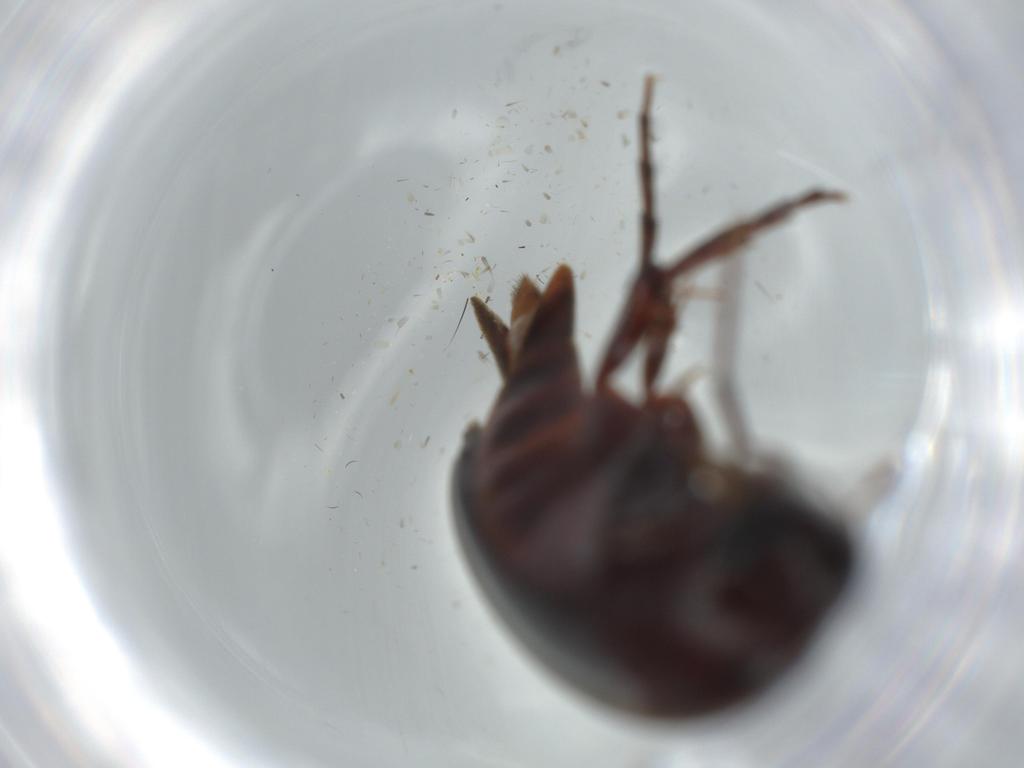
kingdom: Animalia
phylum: Arthropoda
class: Insecta
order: Coleoptera
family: Mordellidae
